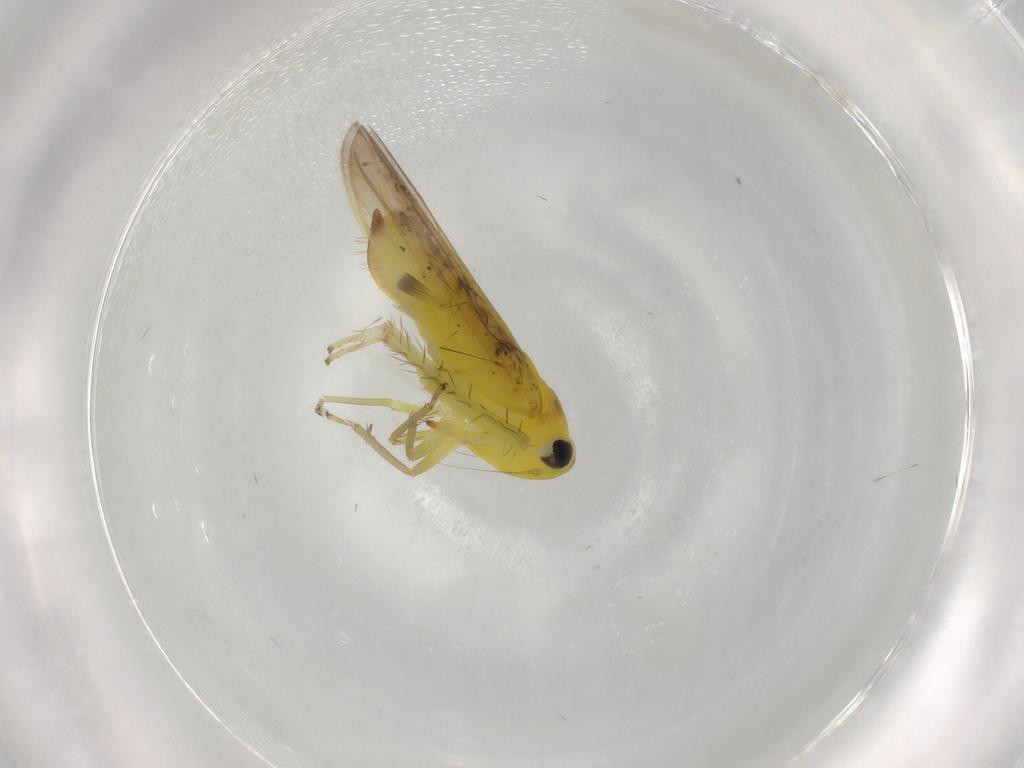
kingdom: Animalia
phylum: Arthropoda
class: Insecta
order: Hemiptera
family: Cicadellidae
